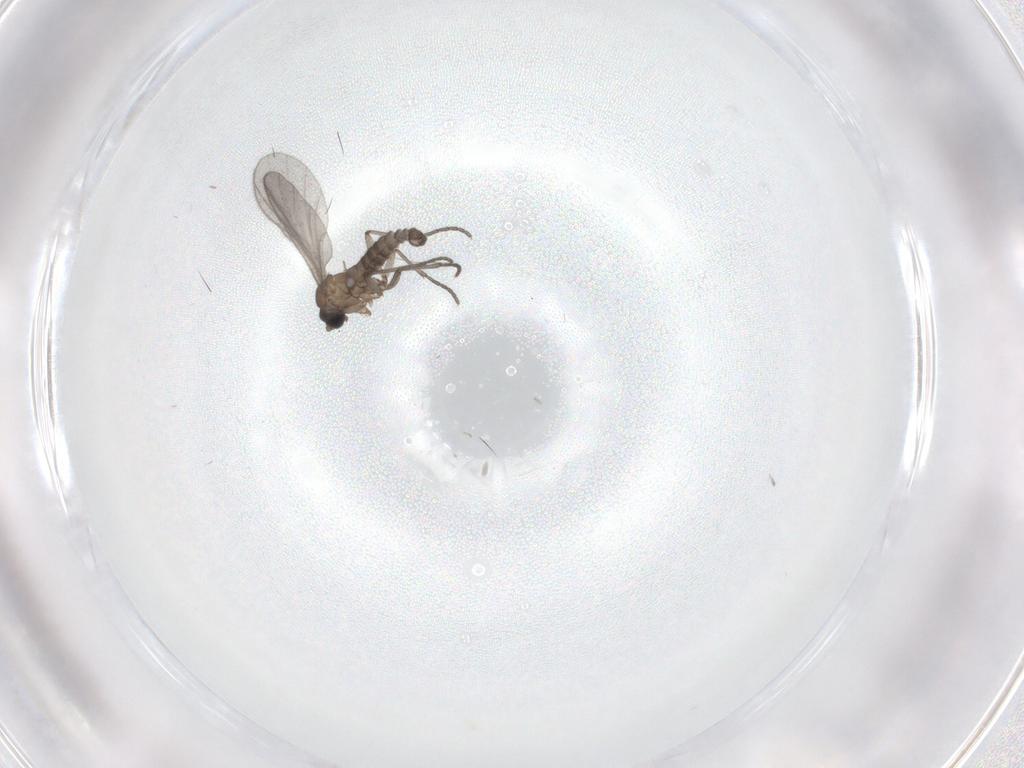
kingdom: Animalia
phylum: Arthropoda
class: Insecta
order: Diptera
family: Sciaridae
